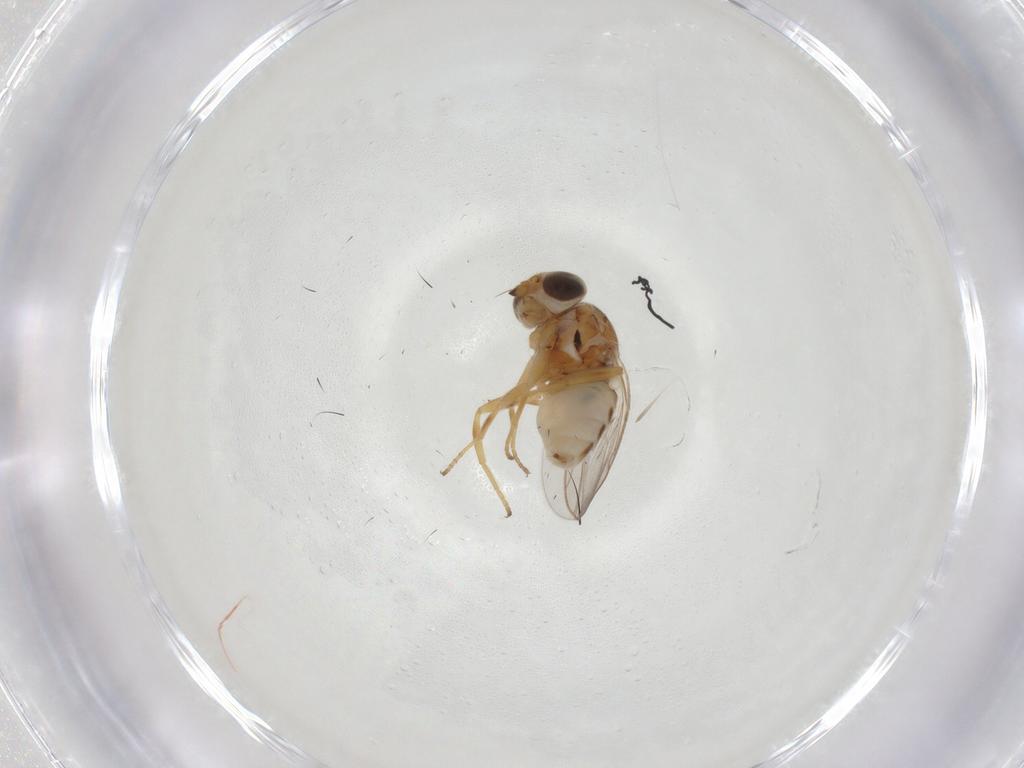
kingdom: Animalia
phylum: Arthropoda
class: Insecta
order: Diptera
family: Chloropidae
